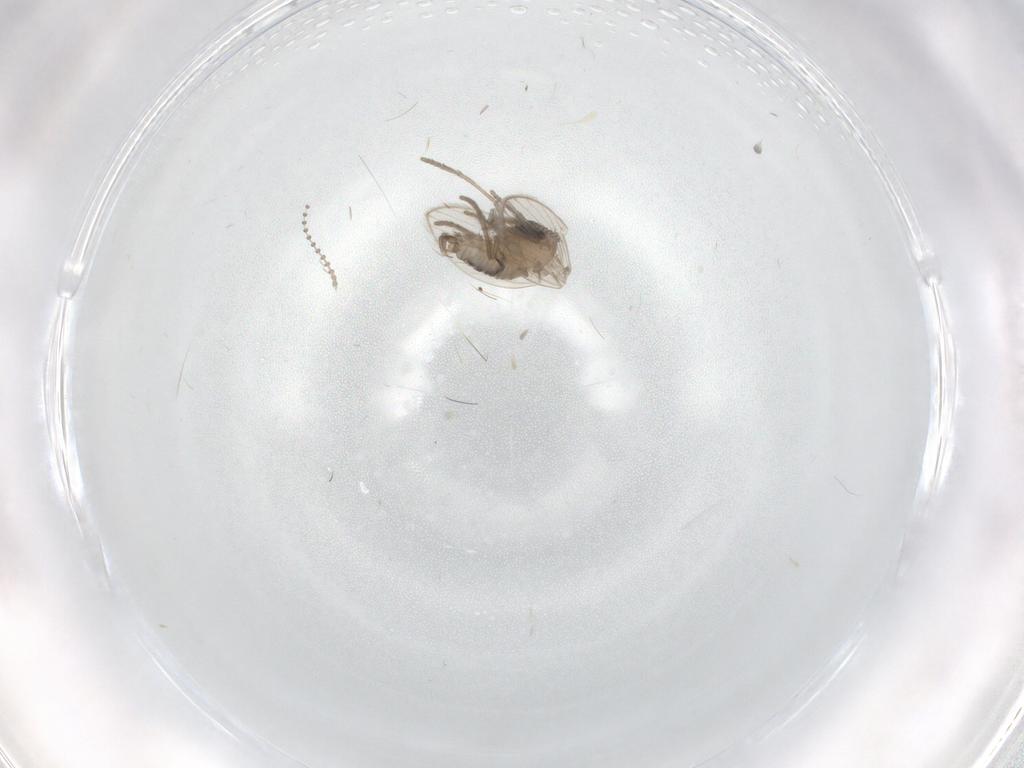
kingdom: Animalia
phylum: Arthropoda
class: Insecta
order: Diptera
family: Psychodidae
